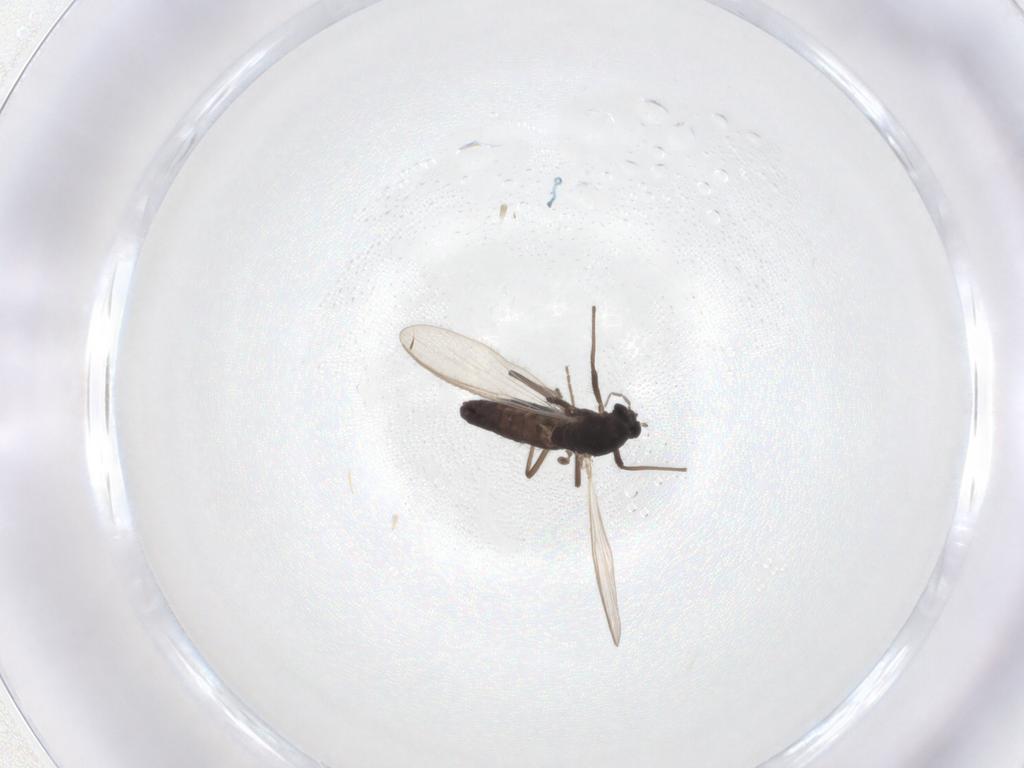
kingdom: Animalia
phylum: Arthropoda
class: Insecta
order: Diptera
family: Chironomidae
